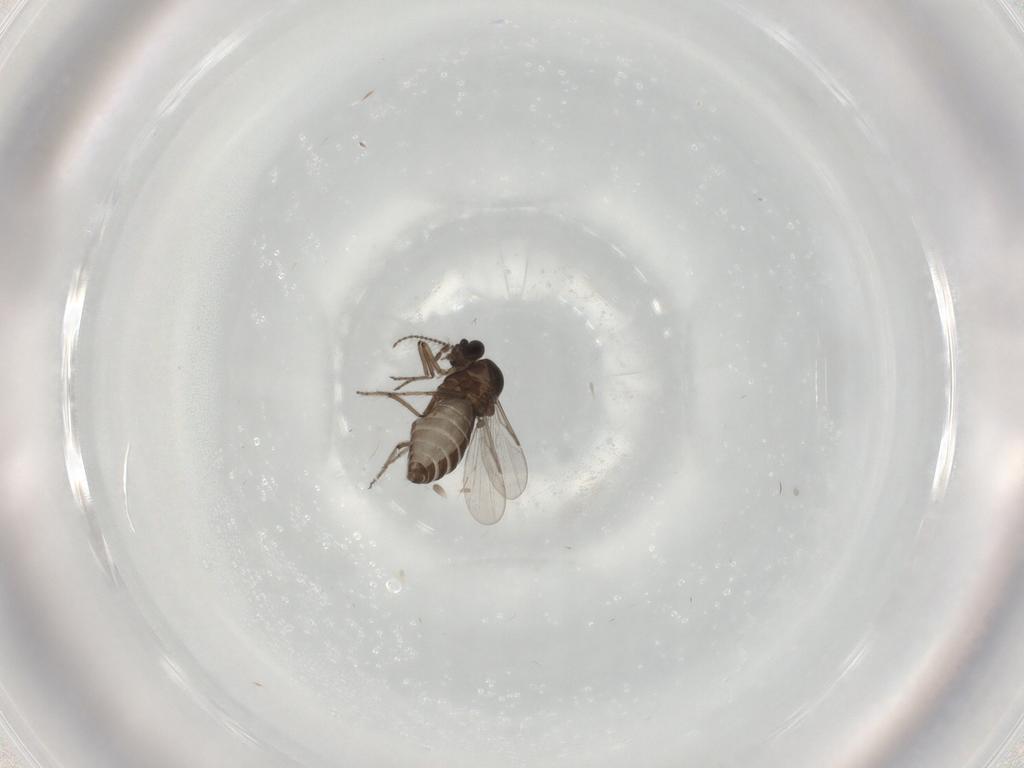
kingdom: Animalia
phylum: Arthropoda
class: Insecta
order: Diptera
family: Ceratopogonidae
